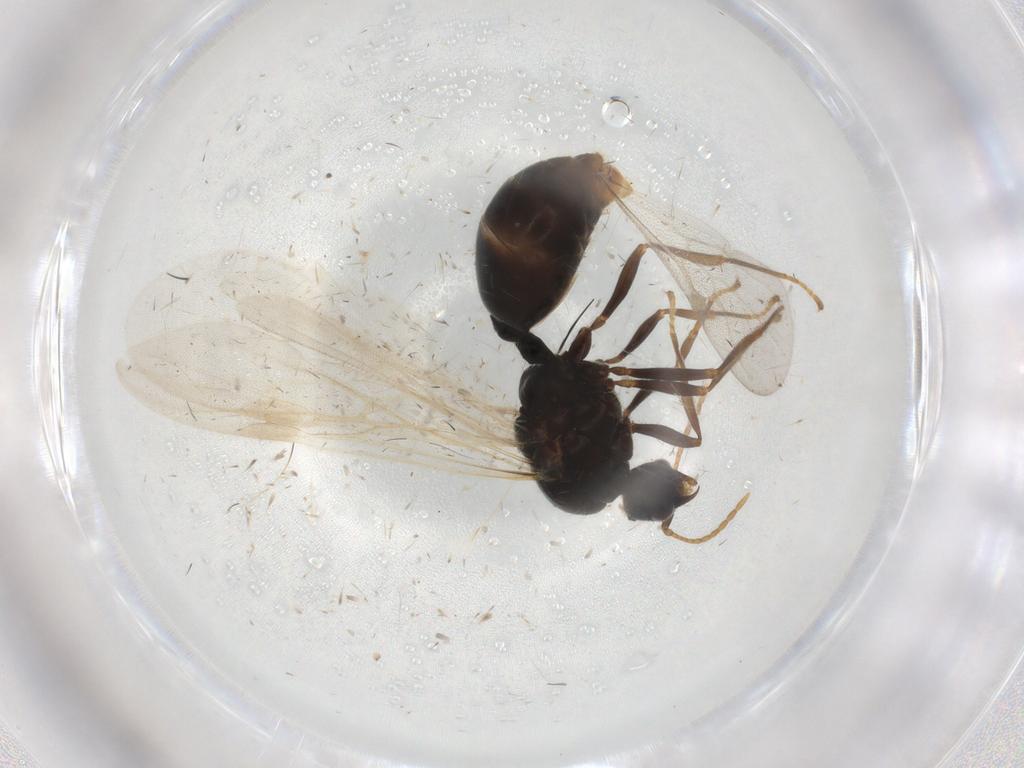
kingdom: Animalia
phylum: Arthropoda
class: Insecta
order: Hymenoptera
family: Formicidae
